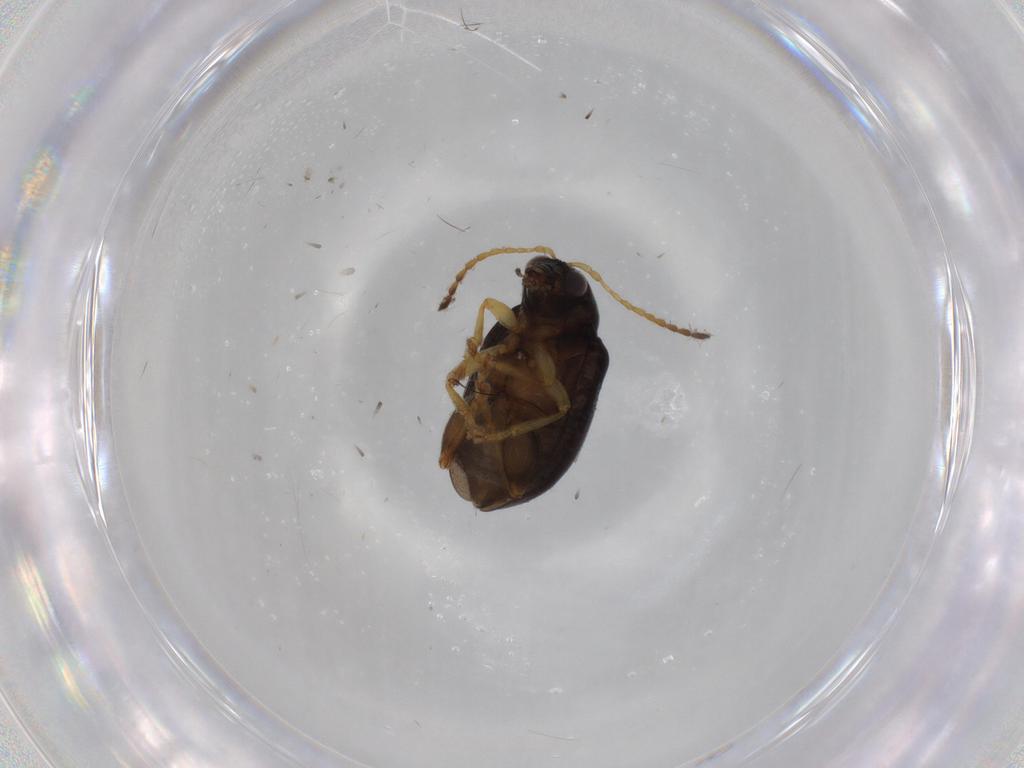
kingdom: Animalia
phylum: Arthropoda
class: Insecta
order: Coleoptera
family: Chrysomelidae
